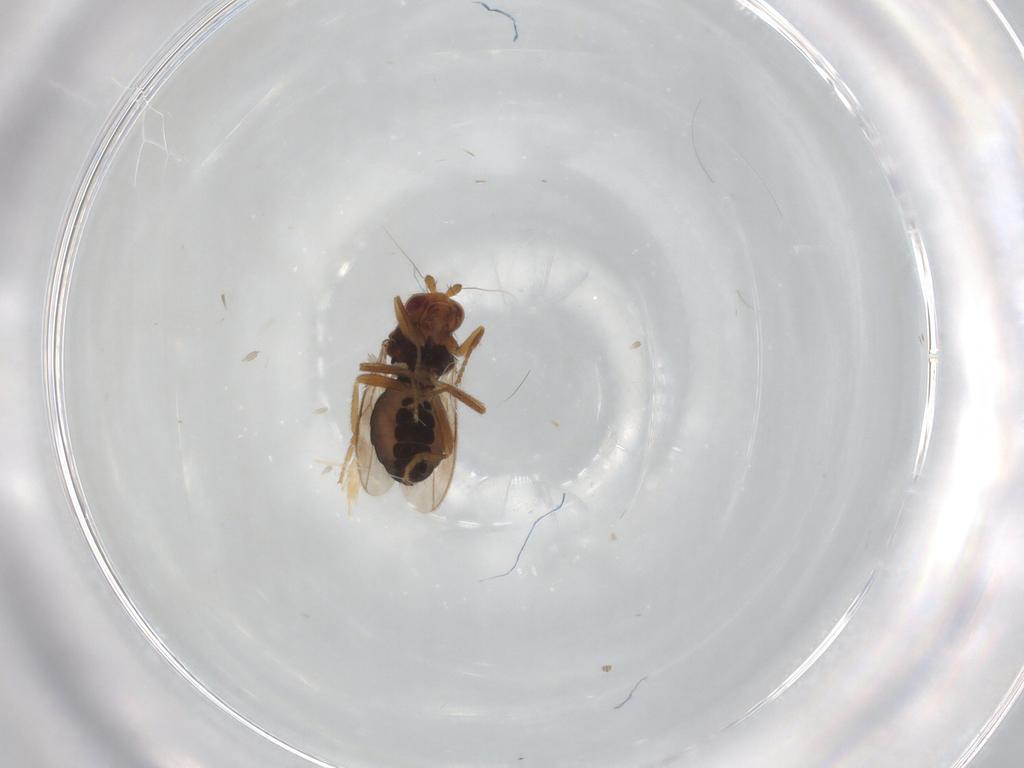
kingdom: Animalia
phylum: Arthropoda
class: Insecta
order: Diptera
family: Sphaeroceridae
